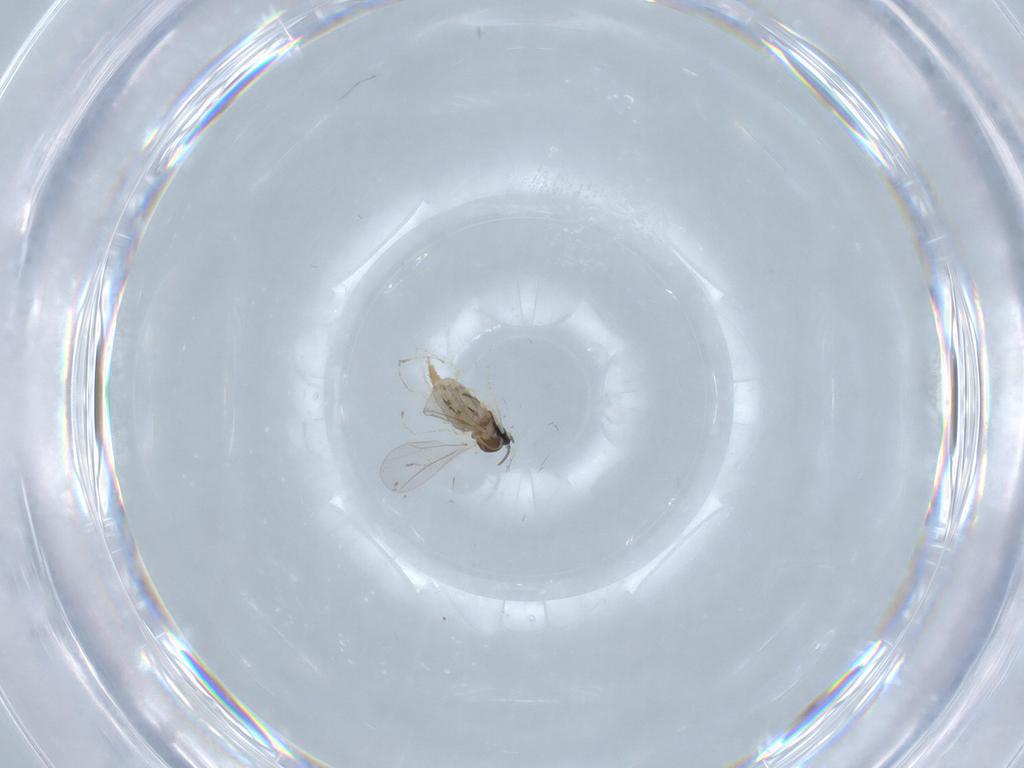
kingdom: Animalia
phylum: Arthropoda
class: Insecta
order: Diptera
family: Cecidomyiidae
